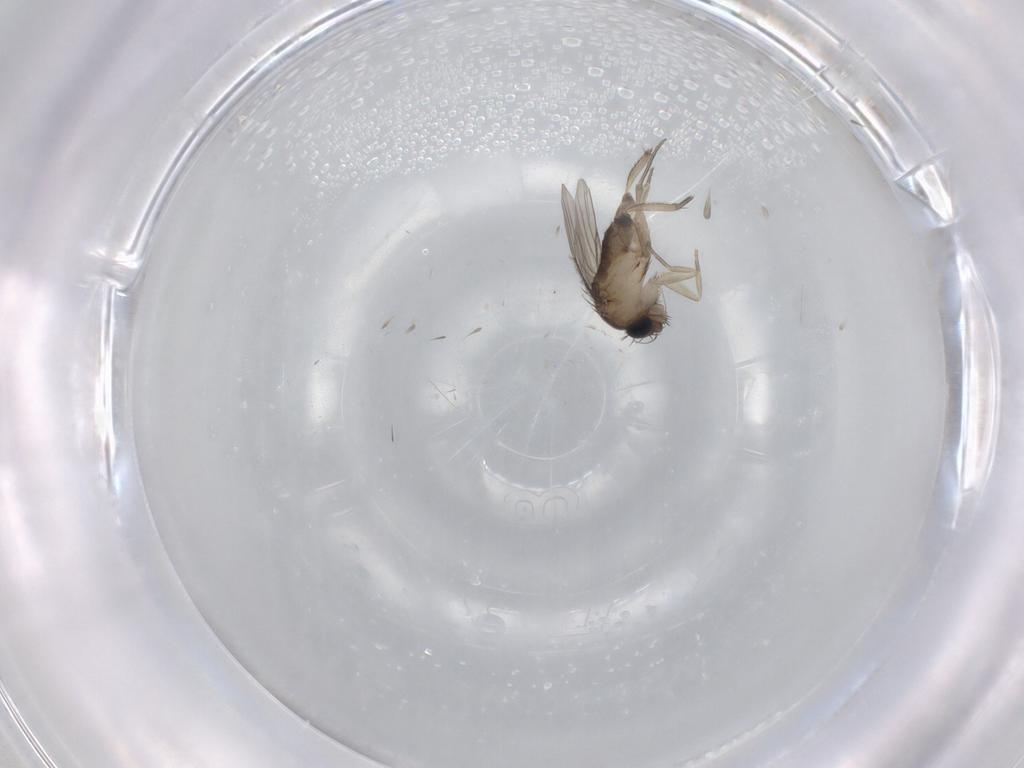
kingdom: Animalia
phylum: Arthropoda
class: Insecta
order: Diptera
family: Phoridae
